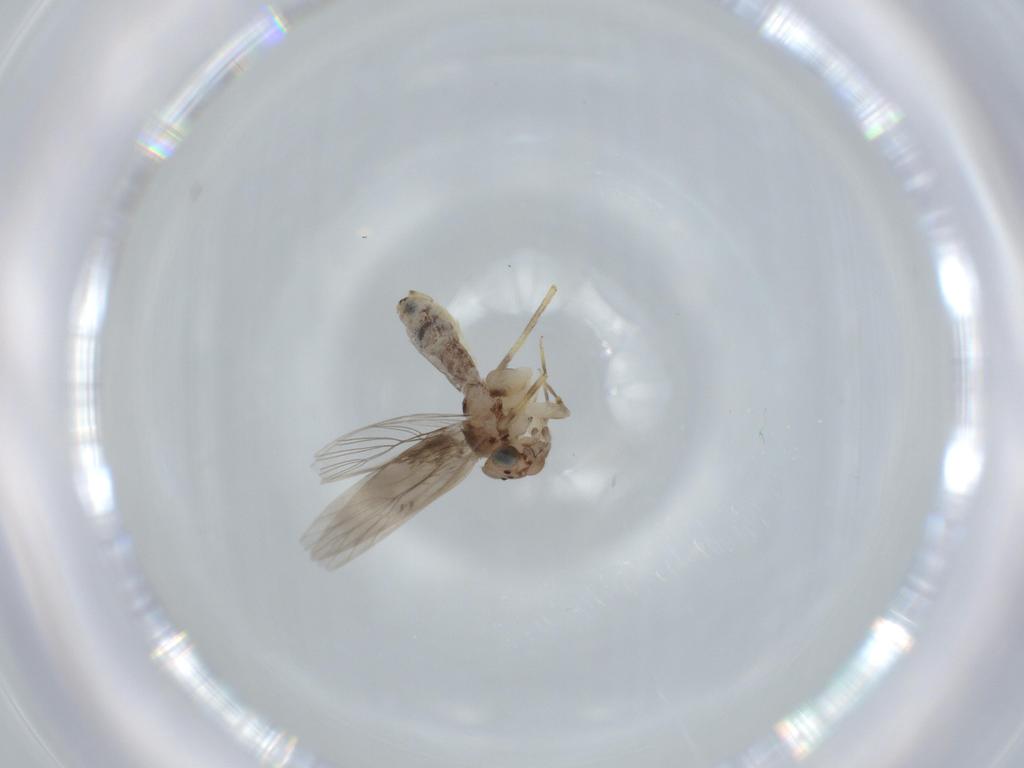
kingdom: Animalia
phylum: Arthropoda
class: Insecta
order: Psocodea
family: Lepidopsocidae
